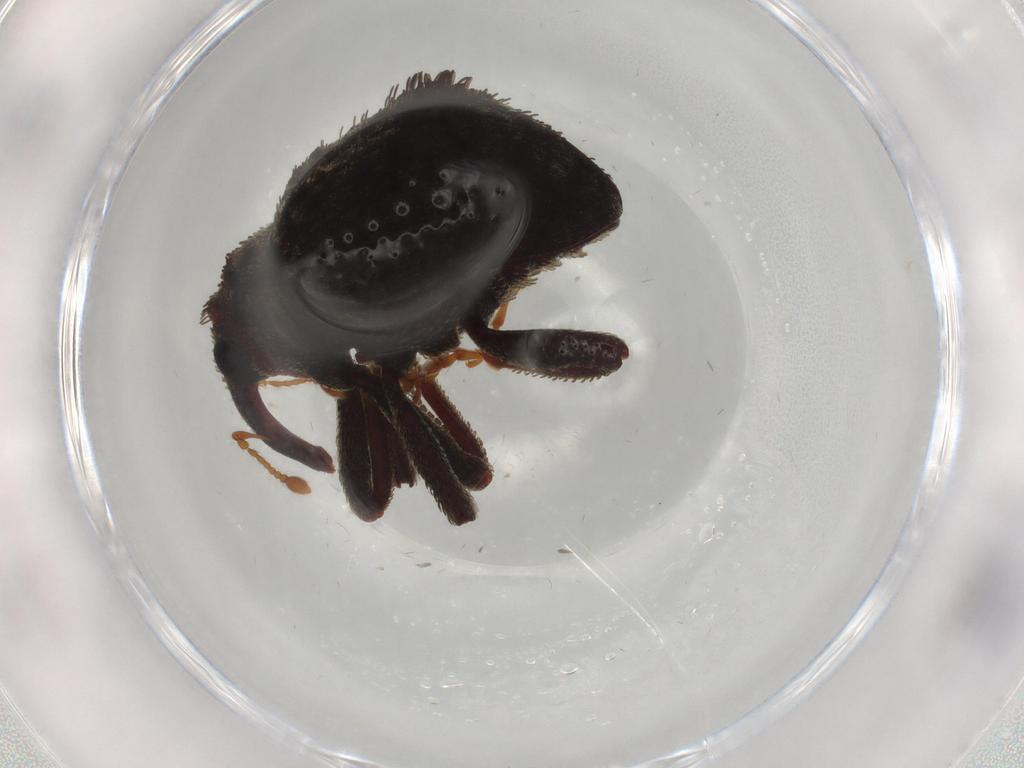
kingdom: Animalia
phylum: Arthropoda
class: Insecta
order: Coleoptera
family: Curculionidae
